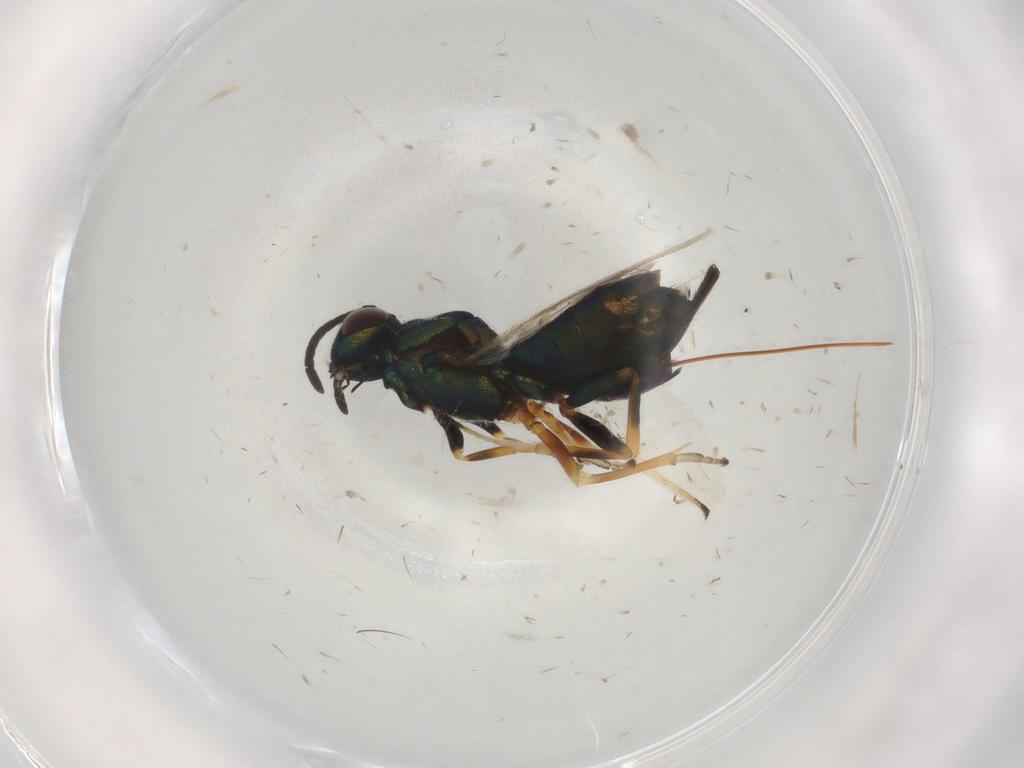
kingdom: Animalia
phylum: Arthropoda
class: Insecta
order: Hymenoptera
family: Eupelmidae
